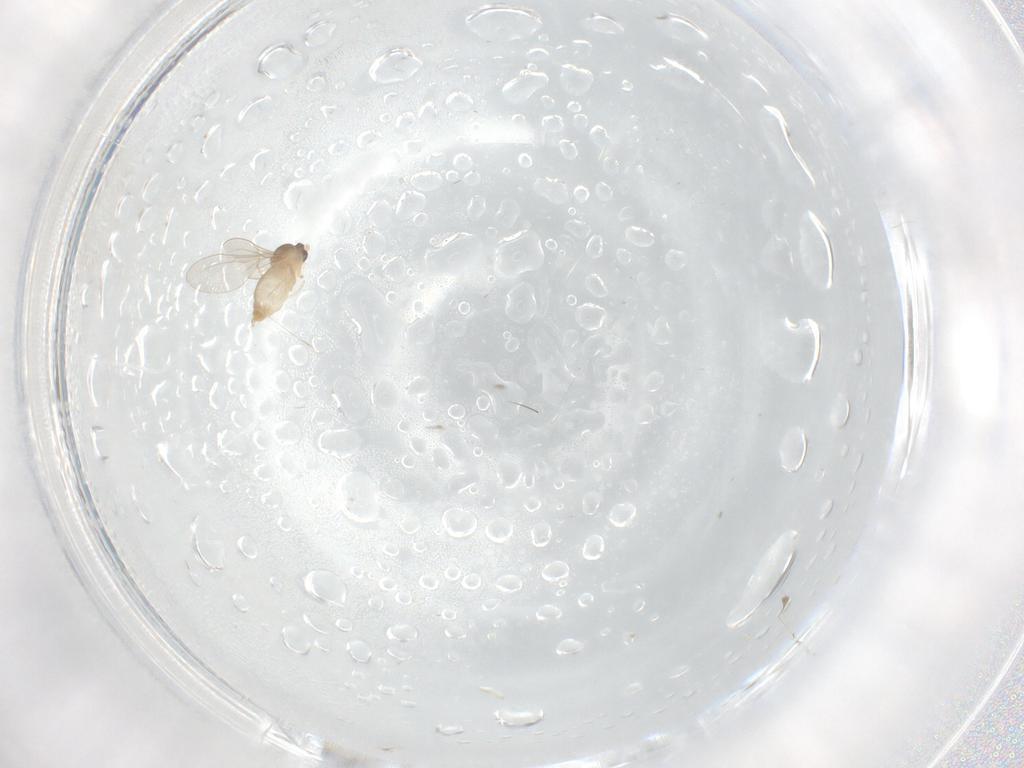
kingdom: Animalia
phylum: Arthropoda
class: Insecta
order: Diptera
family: Cecidomyiidae
